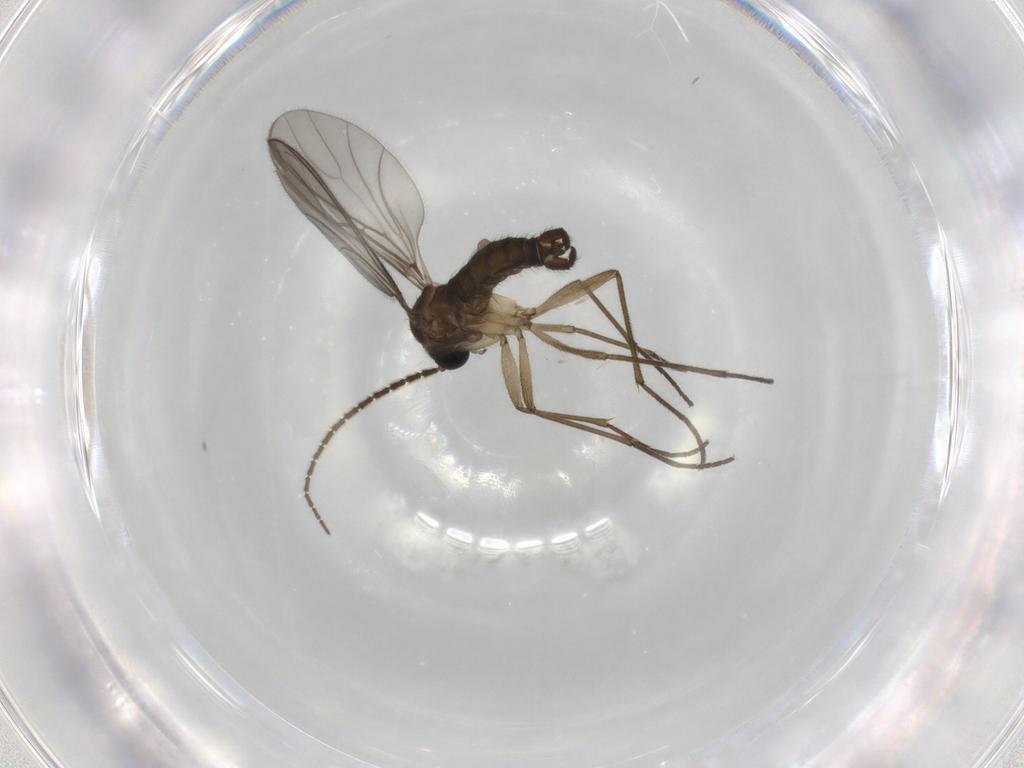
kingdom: Animalia
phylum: Arthropoda
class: Insecta
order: Diptera
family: Sciaridae
